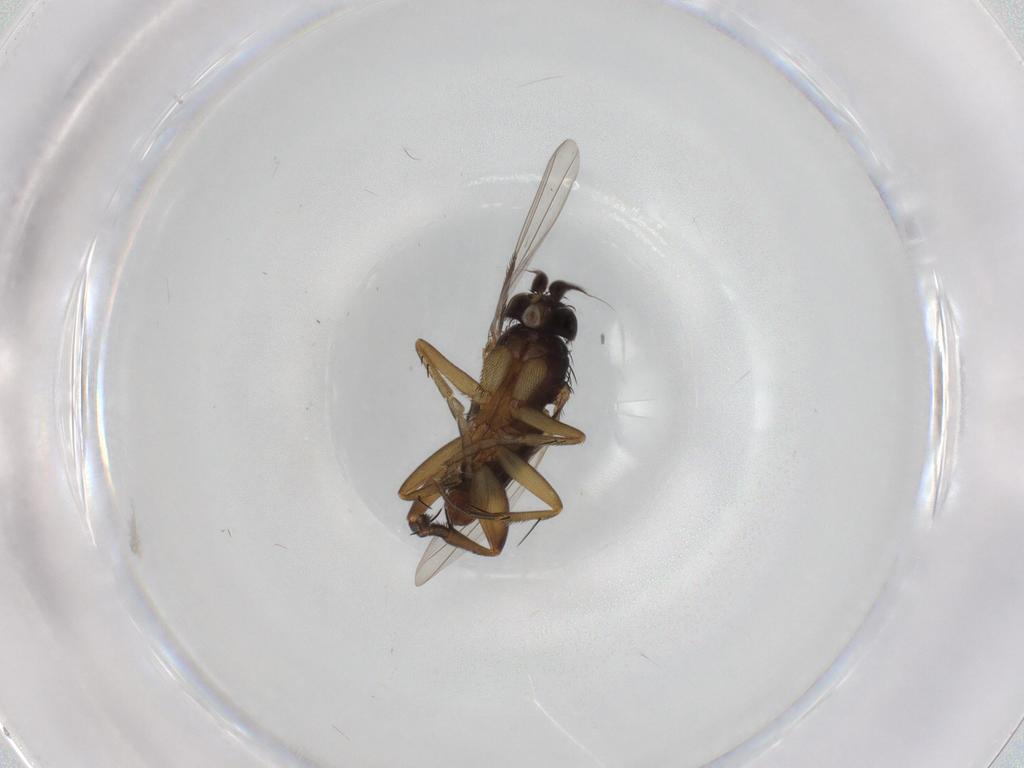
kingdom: Animalia
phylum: Arthropoda
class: Insecta
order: Diptera
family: Phoridae
